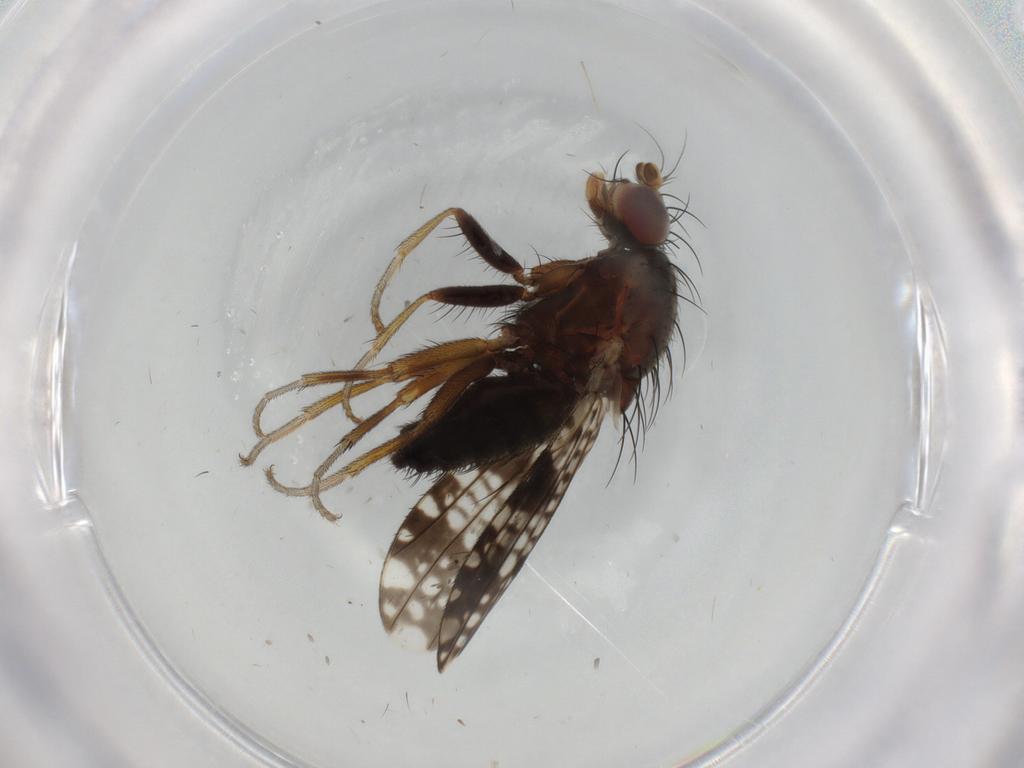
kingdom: Animalia
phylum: Arthropoda
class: Insecta
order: Diptera
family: Tephritidae
